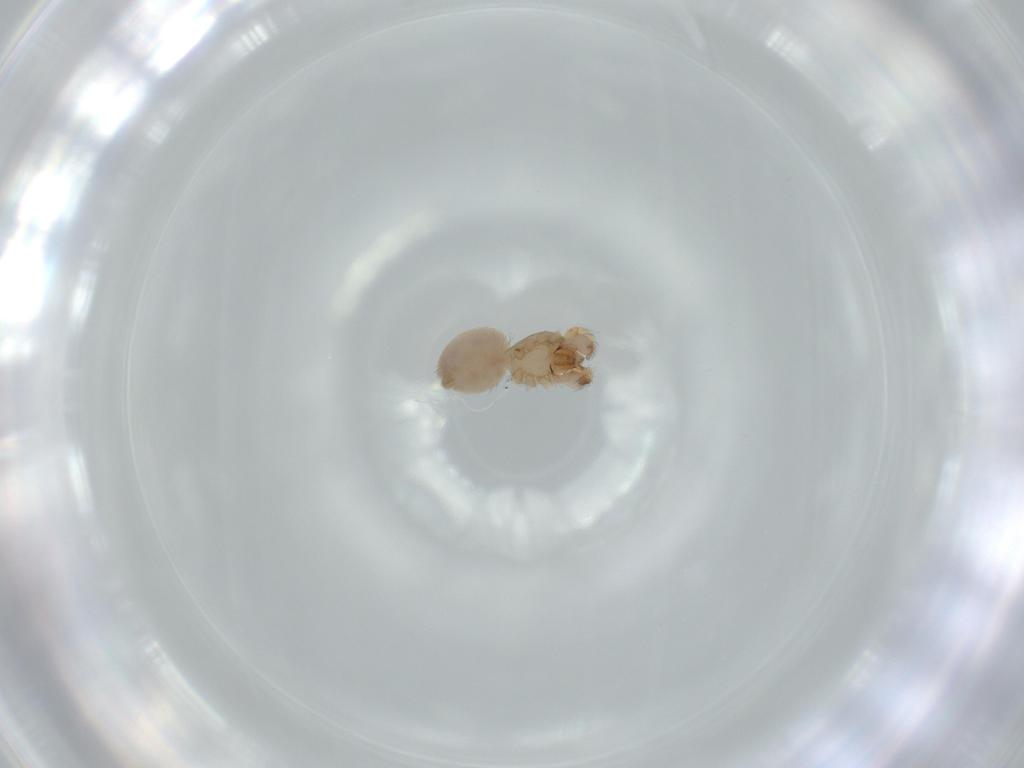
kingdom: Animalia
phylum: Arthropoda
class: Arachnida
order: Araneae
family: Oonopidae
